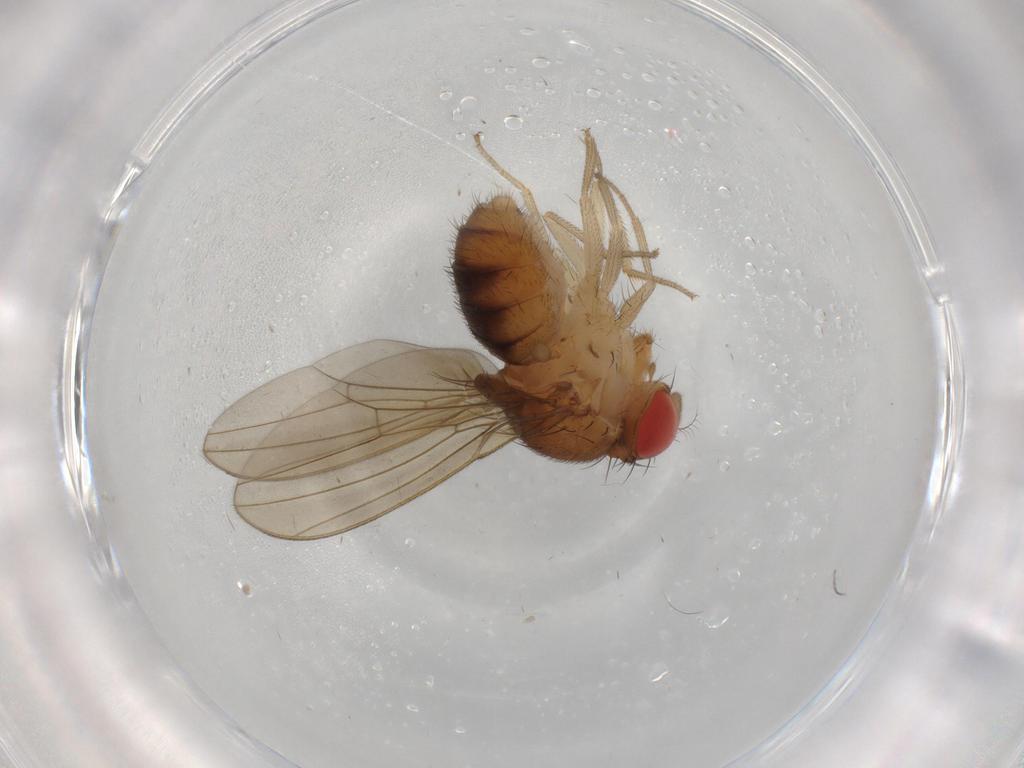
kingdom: Animalia
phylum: Arthropoda
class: Insecta
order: Diptera
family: Drosophilidae
